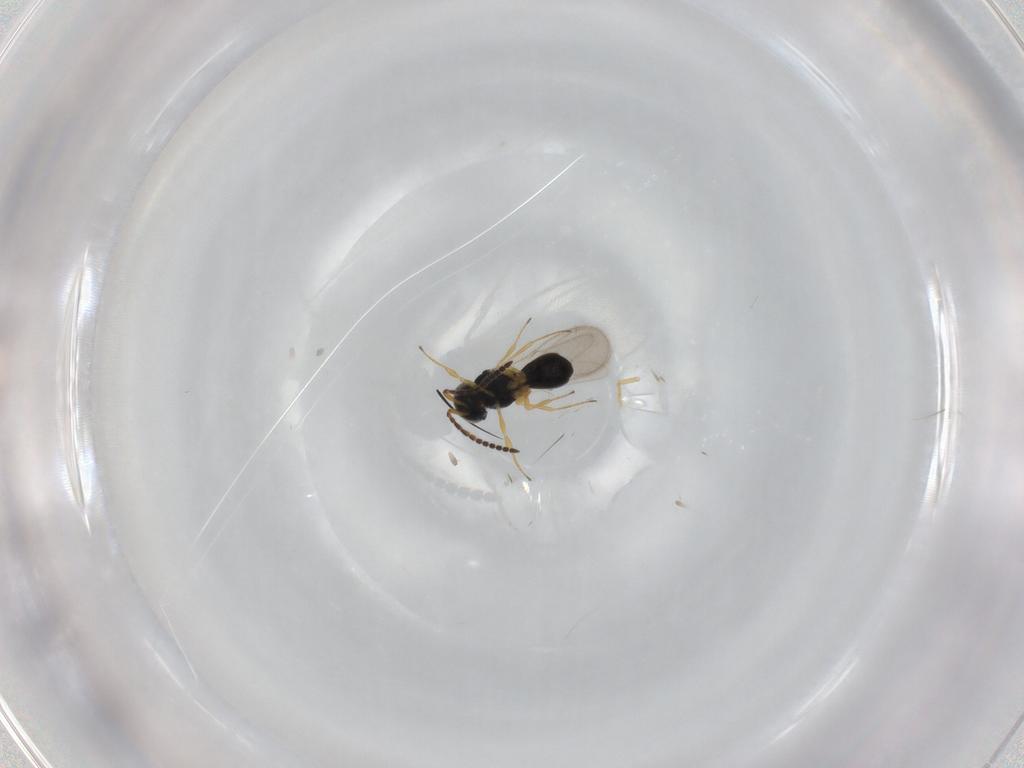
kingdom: Animalia
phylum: Arthropoda
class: Insecta
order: Hymenoptera
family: Scelionidae
